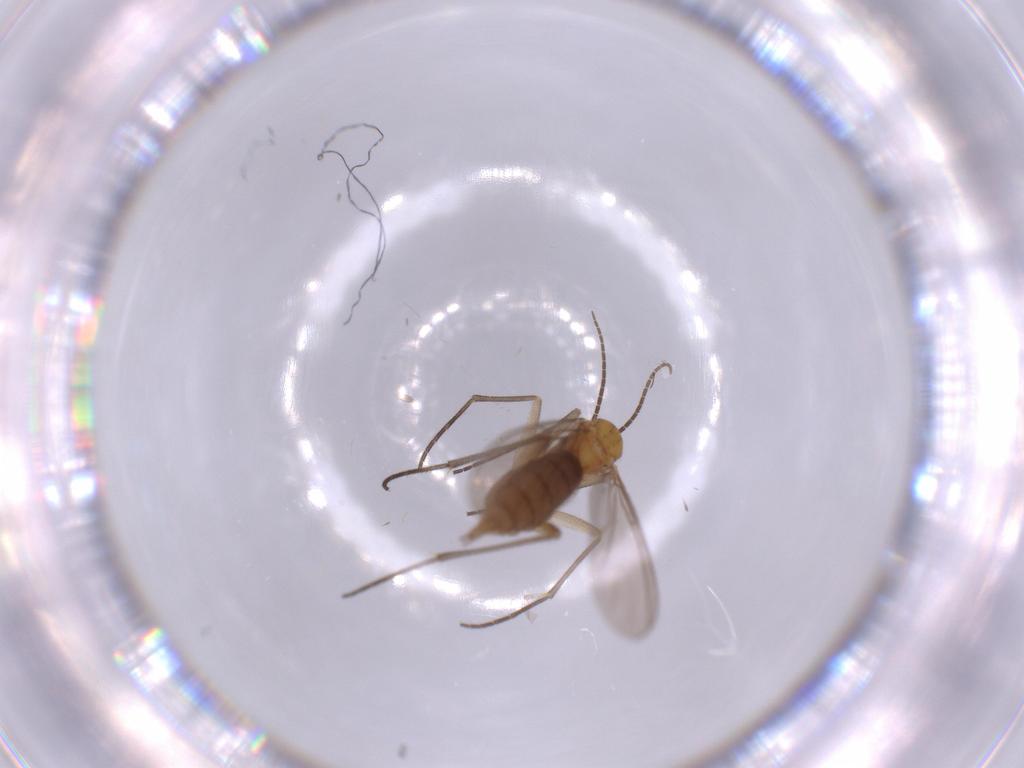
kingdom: Animalia
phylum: Arthropoda
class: Insecta
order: Diptera
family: Sciaridae
